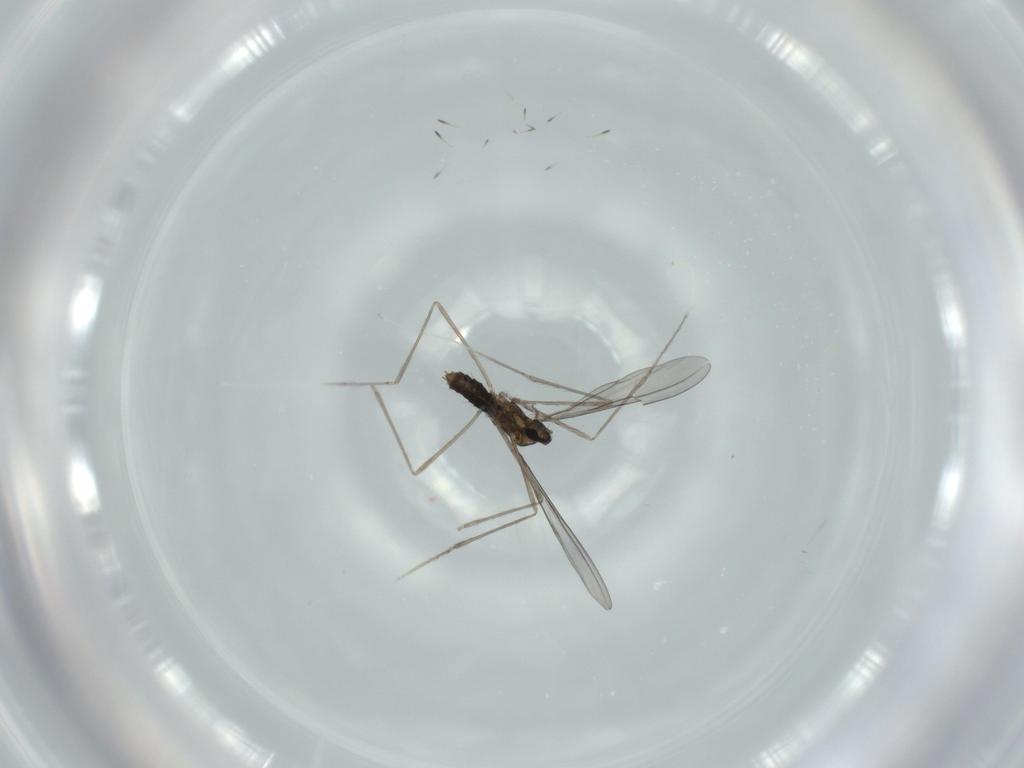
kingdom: Animalia
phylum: Arthropoda
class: Insecta
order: Diptera
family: Cecidomyiidae
